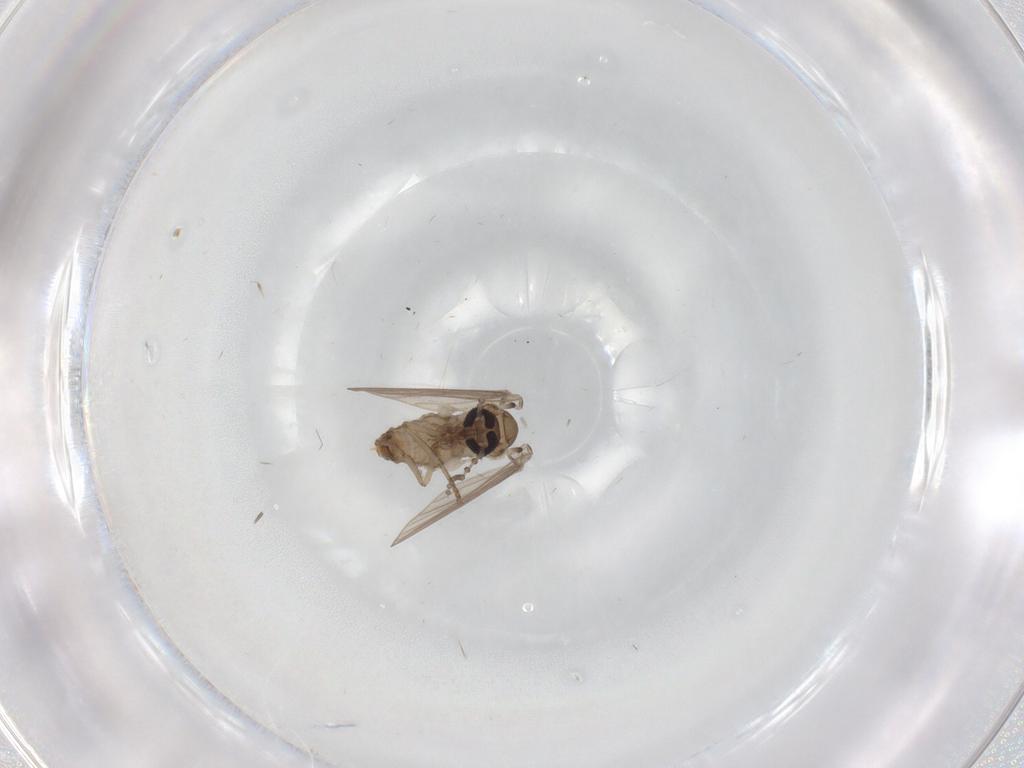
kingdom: Animalia
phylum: Arthropoda
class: Insecta
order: Diptera
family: Psychodidae
